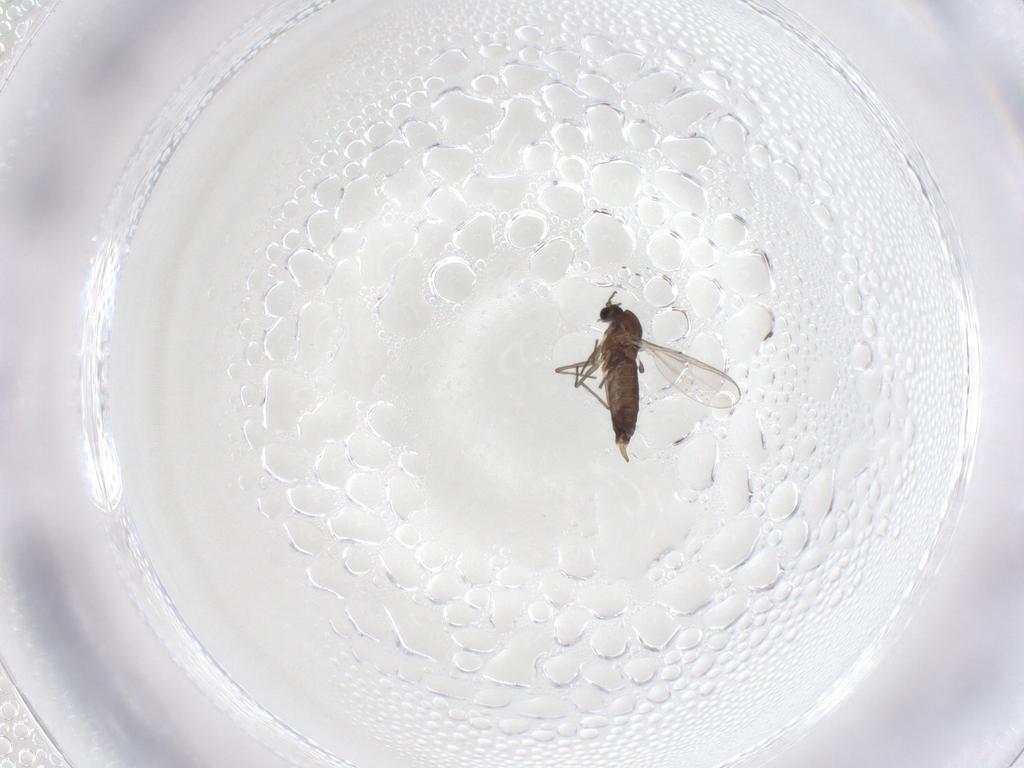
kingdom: Animalia
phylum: Arthropoda
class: Insecta
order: Diptera
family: Chironomidae
